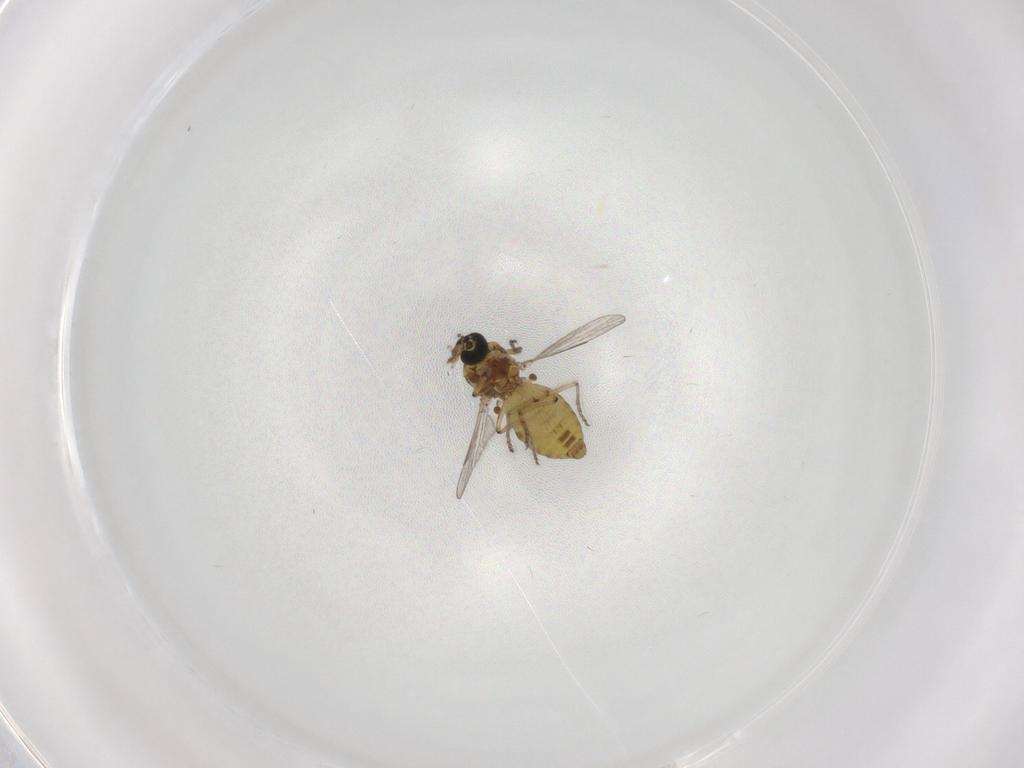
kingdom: Animalia
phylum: Arthropoda
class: Insecta
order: Diptera
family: Ceratopogonidae
